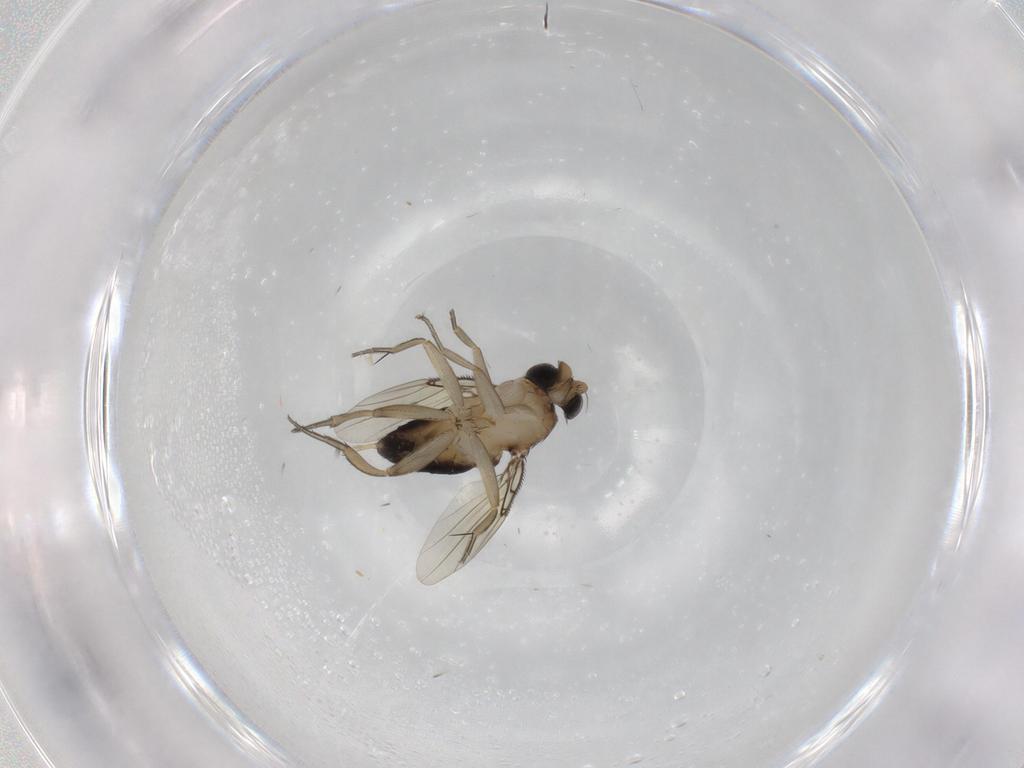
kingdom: Animalia
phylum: Arthropoda
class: Insecta
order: Diptera
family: Phoridae
